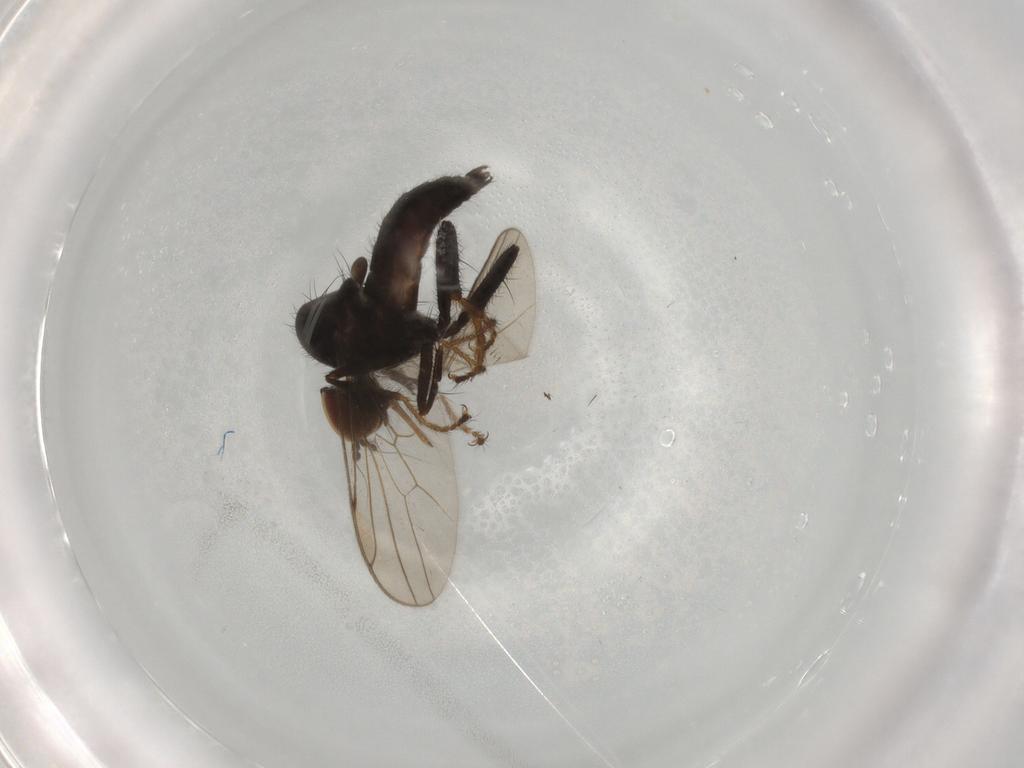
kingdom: Animalia
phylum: Arthropoda
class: Insecta
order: Diptera
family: Hybotidae
